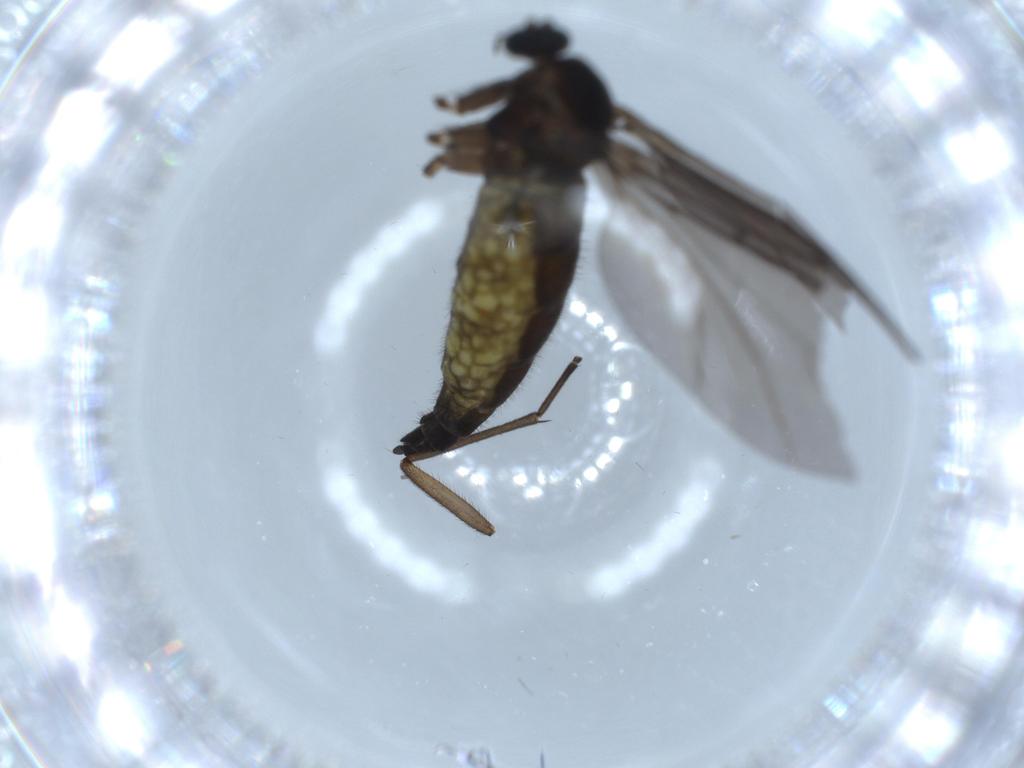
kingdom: Animalia
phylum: Arthropoda
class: Insecta
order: Diptera
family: Sciaridae
